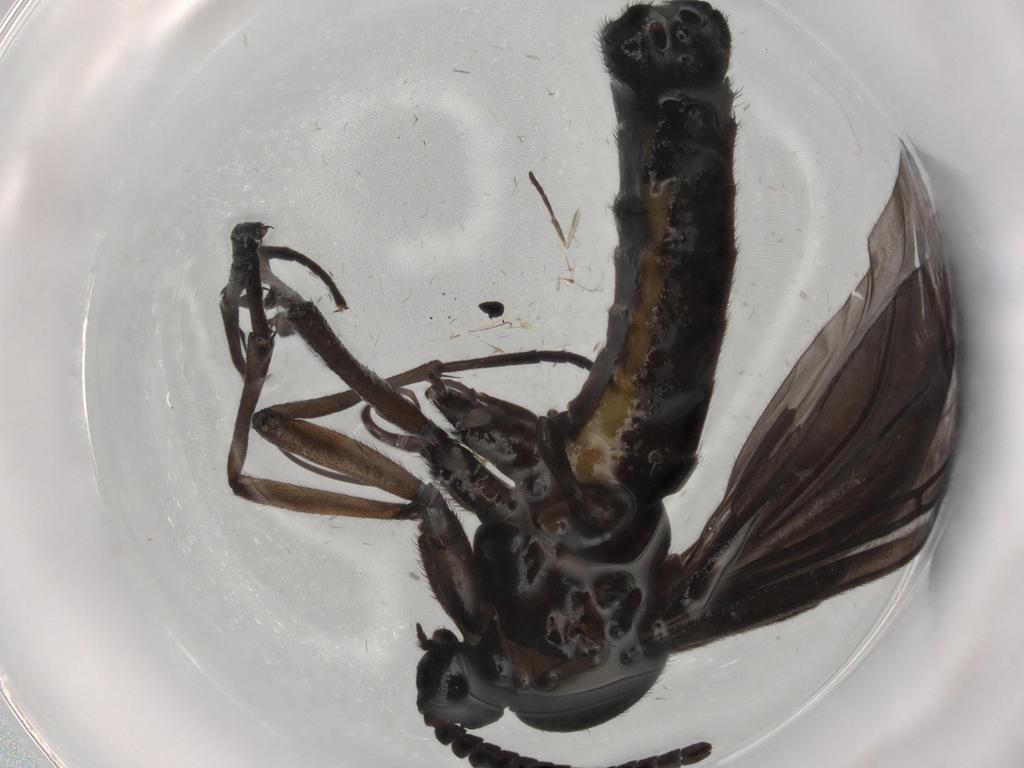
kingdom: Animalia
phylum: Arthropoda
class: Insecta
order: Diptera
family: Sciaridae
